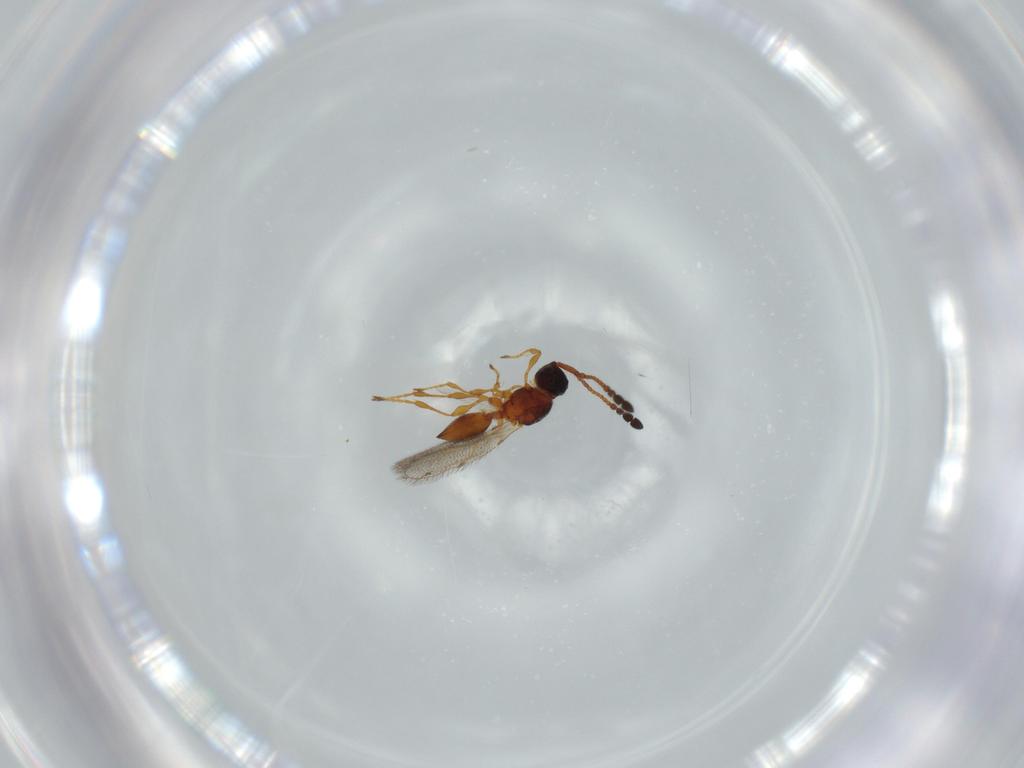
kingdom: Animalia
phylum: Arthropoda
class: Insecta
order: Hymenoptera
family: Diapriidae
